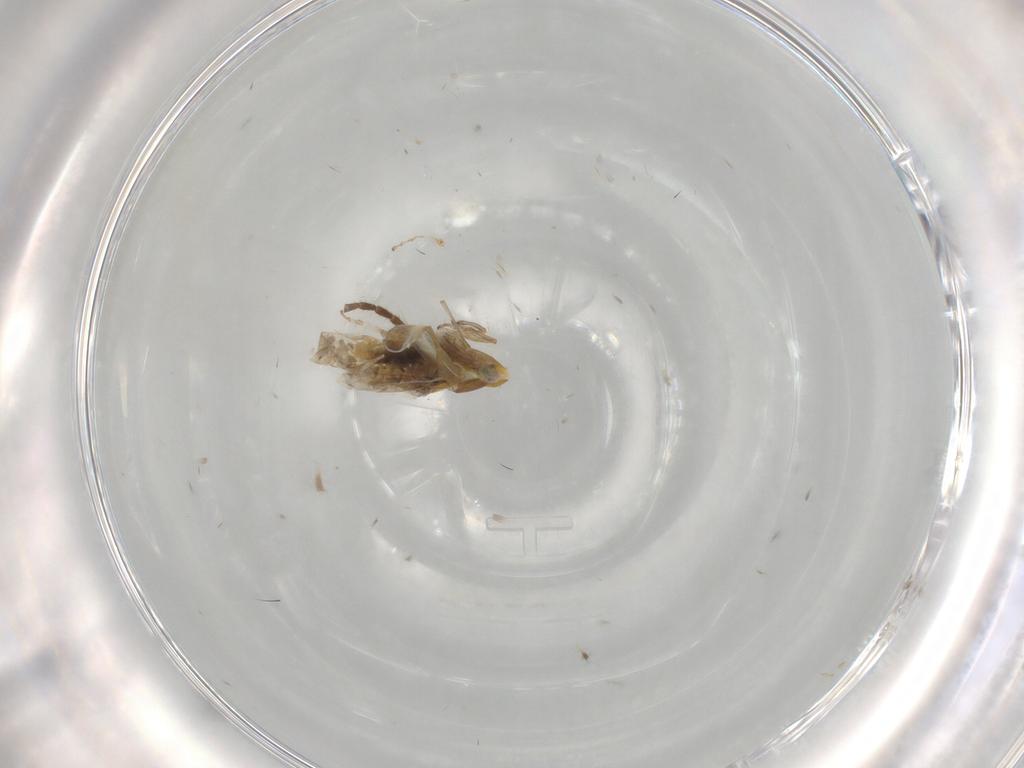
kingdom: Animalia
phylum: Arthropoda
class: Insecta
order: Hemiptera
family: Cicadellidae
